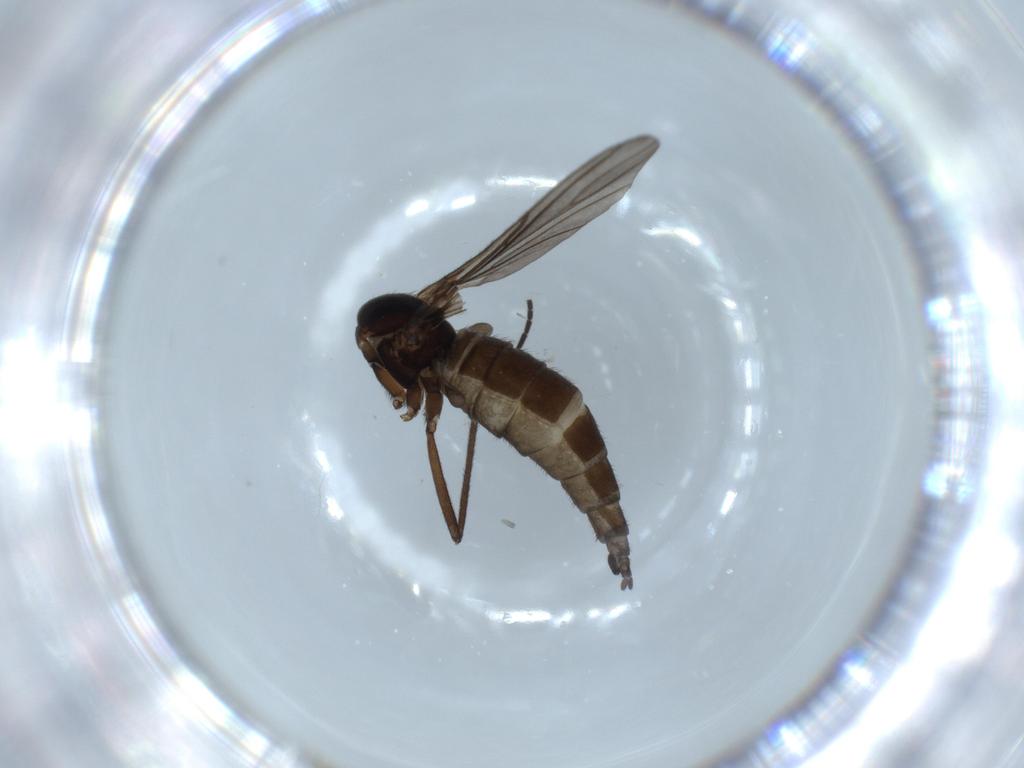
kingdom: Animalia
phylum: Arthropoda
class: Insecta
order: Diptera
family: Sciaridae
